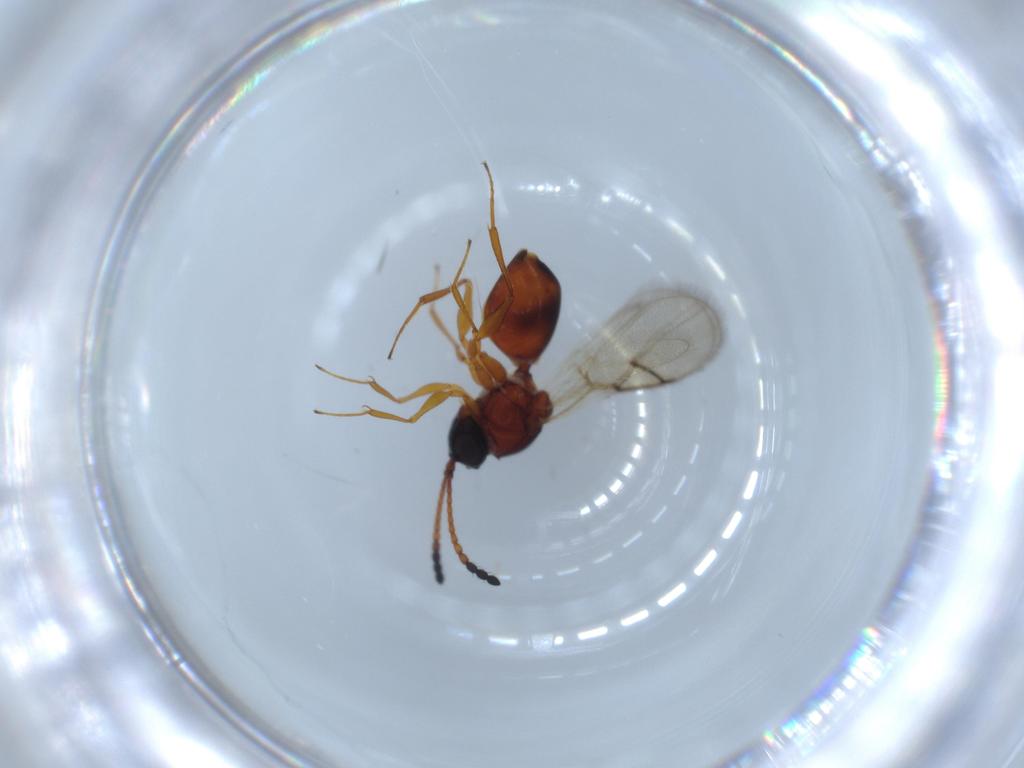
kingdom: Animalia
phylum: Arthropoda
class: Insecta
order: Hymenoptera
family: Figitidae
